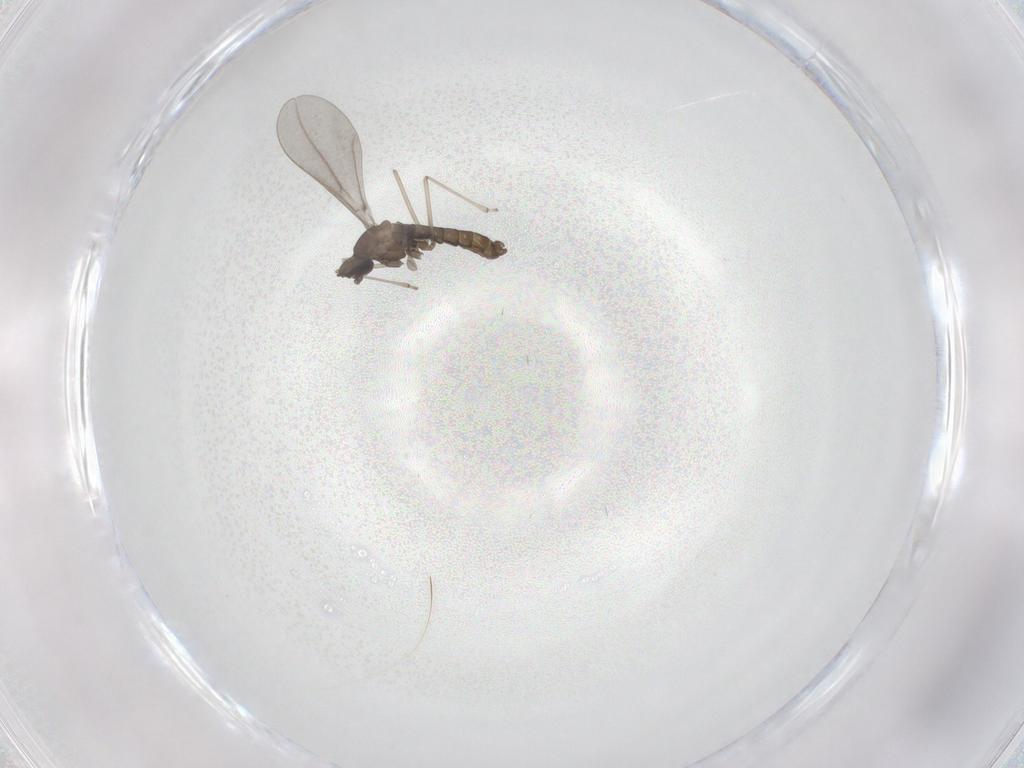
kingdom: Animalia
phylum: Arthropoda
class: Insecta
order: Diptera
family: Cecidomyiidae
